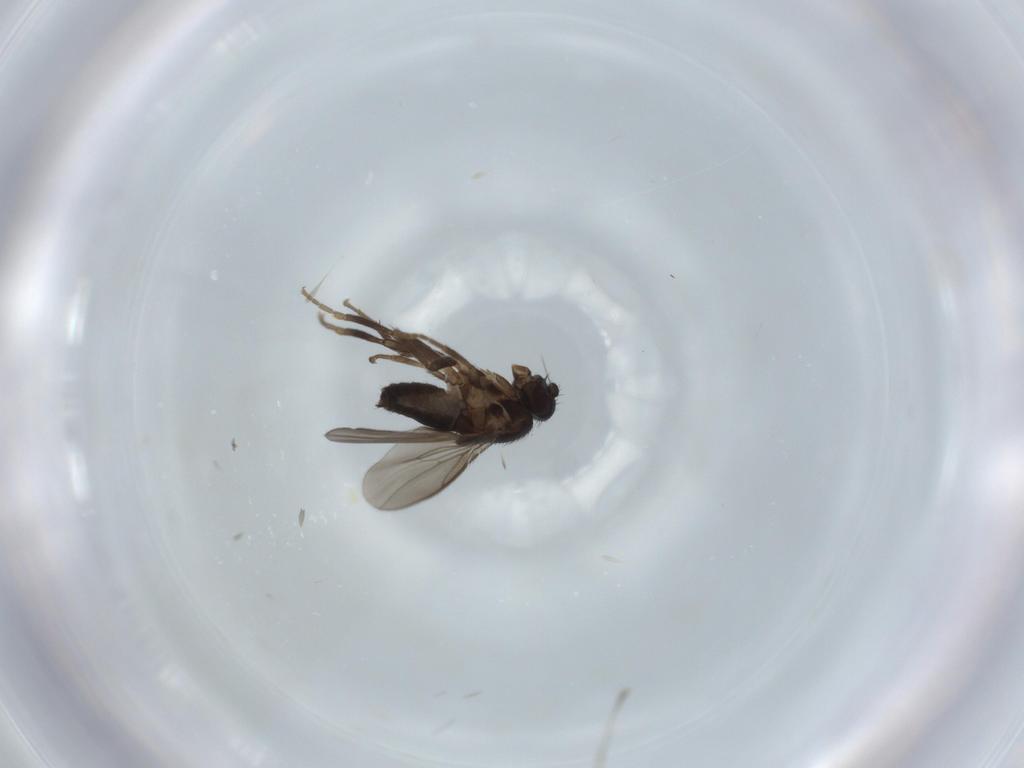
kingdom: Animalia
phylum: Arthropoda
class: Insecta
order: Diptera
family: Sphaeroceridae
